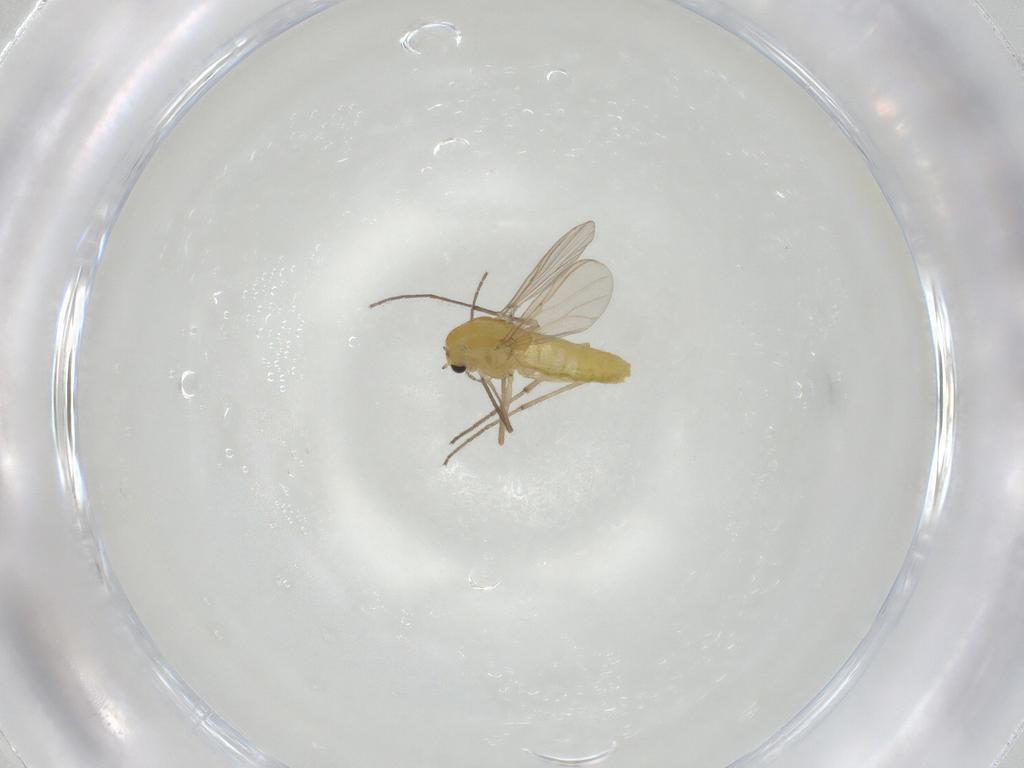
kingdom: Animalia
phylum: Arthropoda
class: Insecta
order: Diptera
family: Chironomidae
